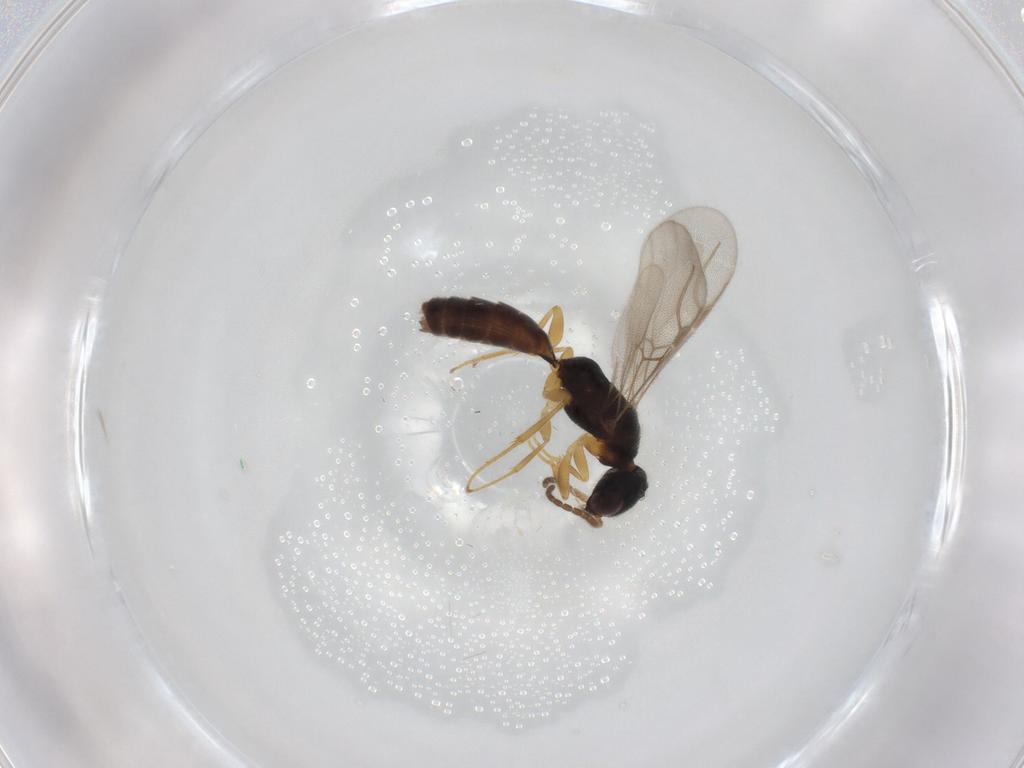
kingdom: Animalia
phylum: Arthropoda
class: Insecta
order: Hymenoptera
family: Bethylidae
